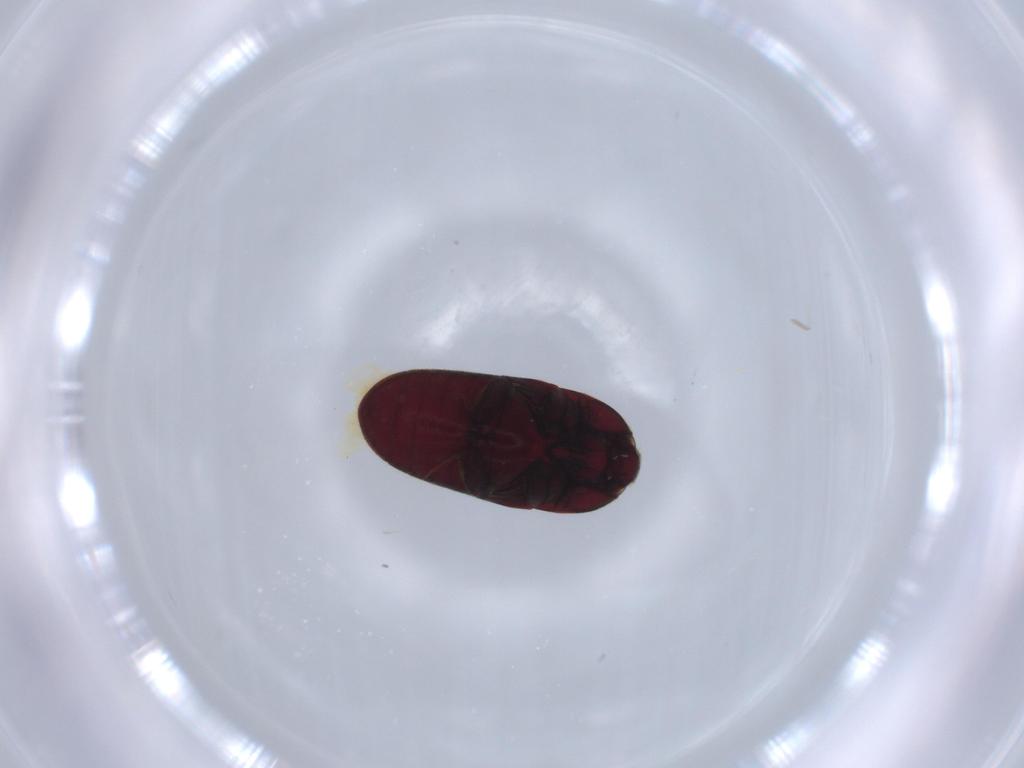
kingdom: Animalia
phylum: Arthropoda
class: Insecta
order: Coleoptera
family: Throscidae
